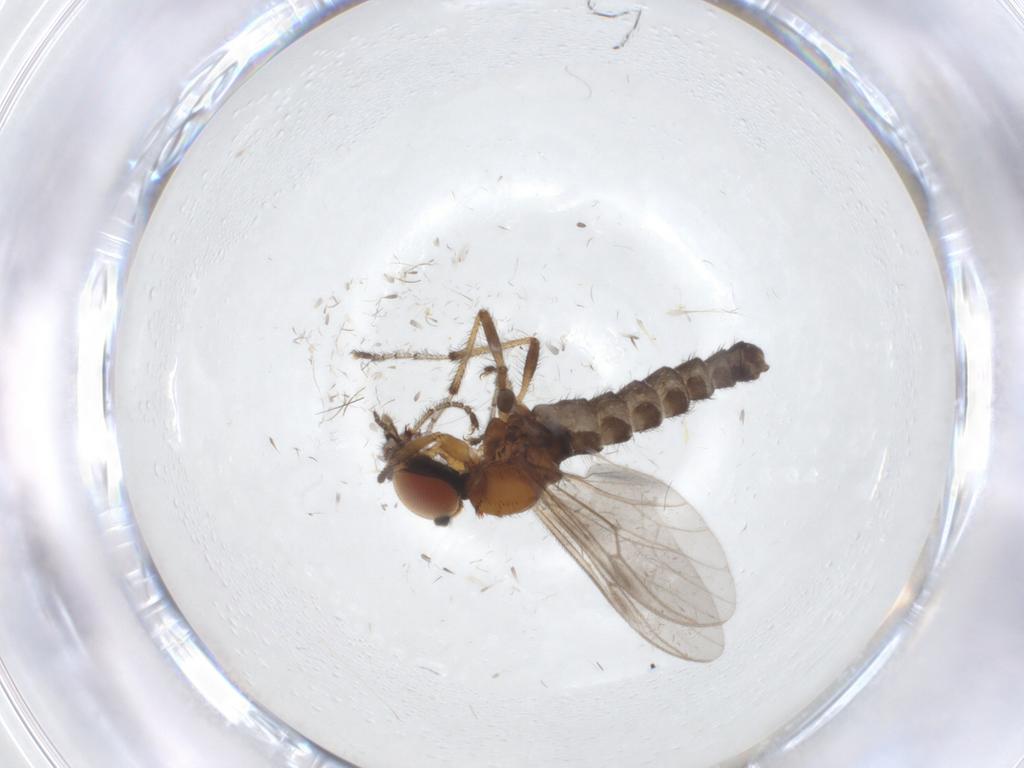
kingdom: Animalia
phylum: Arthropoda
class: Insecta
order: Diptera
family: Bibionidae
